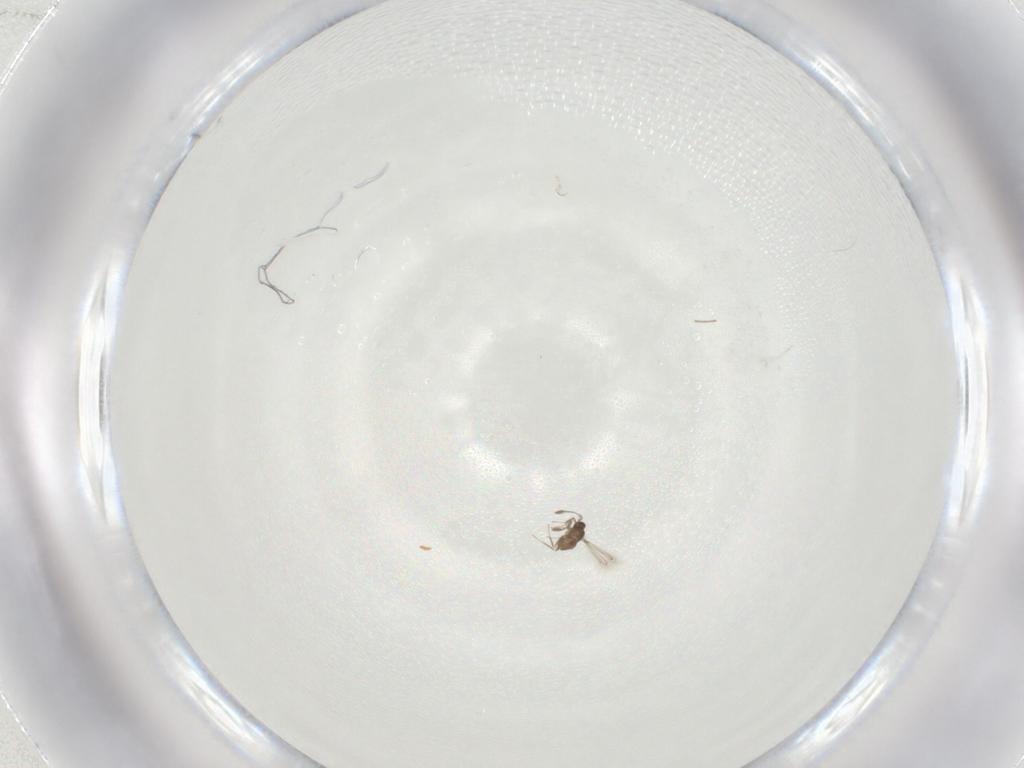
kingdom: Animalia
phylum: Arthropoda
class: Insecta
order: Hymenoptera
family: Mymaridae
